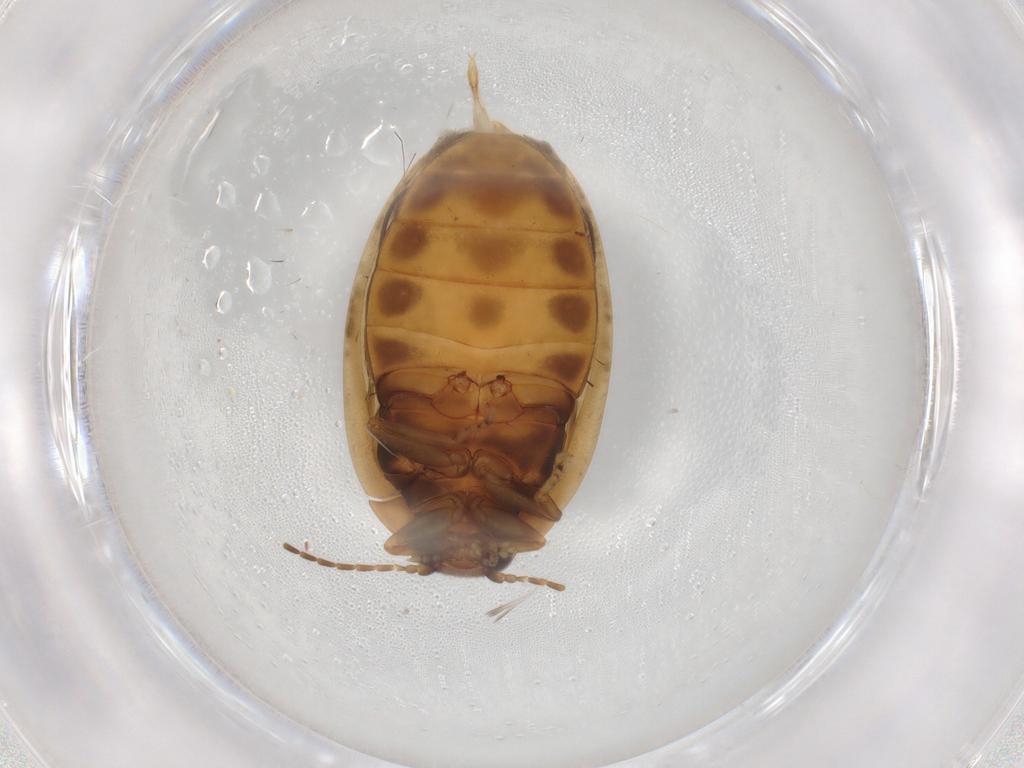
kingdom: Animalia
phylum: Arthropoda
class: Insecta
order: Coleoptera
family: Scirtidae
